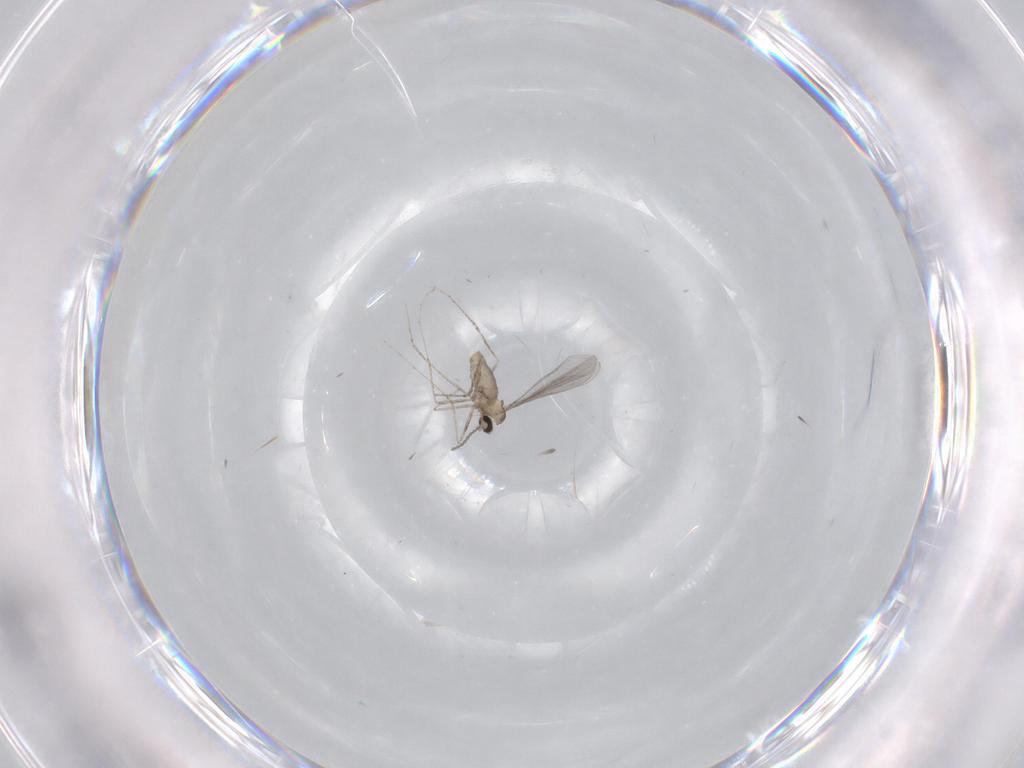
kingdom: Animalia
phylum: Arthropoda
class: Insecta
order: Diptera
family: Cecidomyiidae
